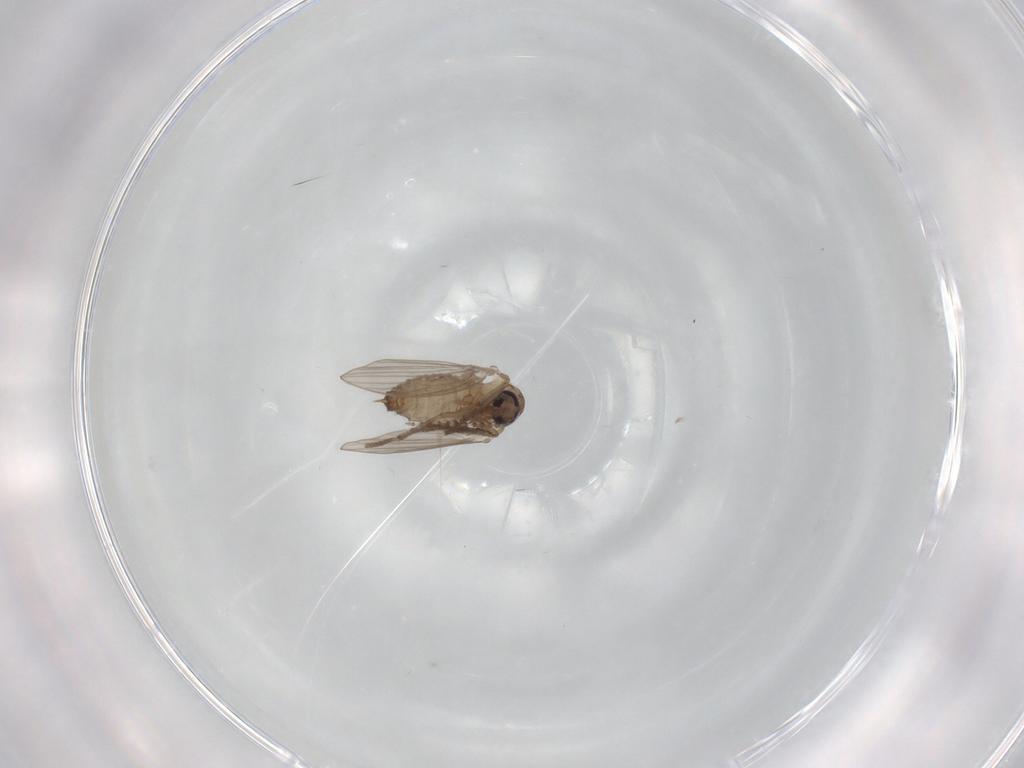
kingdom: Animalia
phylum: Arthropoda
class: Insecta
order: Diptera
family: Psychodidae
